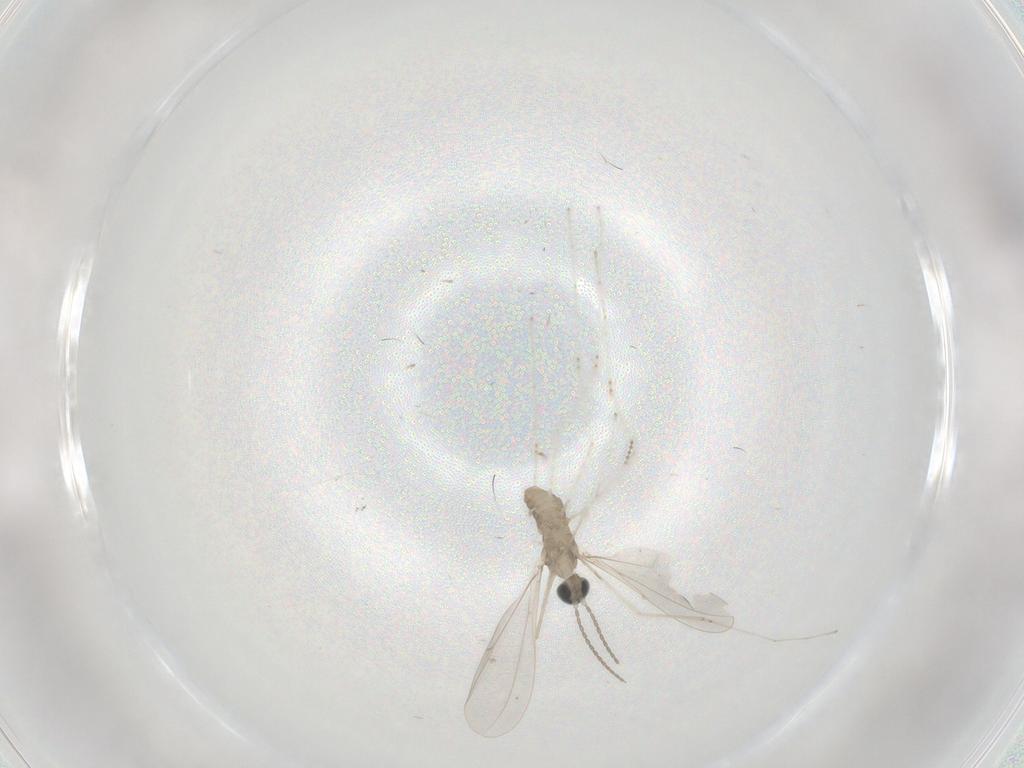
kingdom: Animalia
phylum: Arthropoda
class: Insecta
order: Diptera
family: Cecidomyiidae
